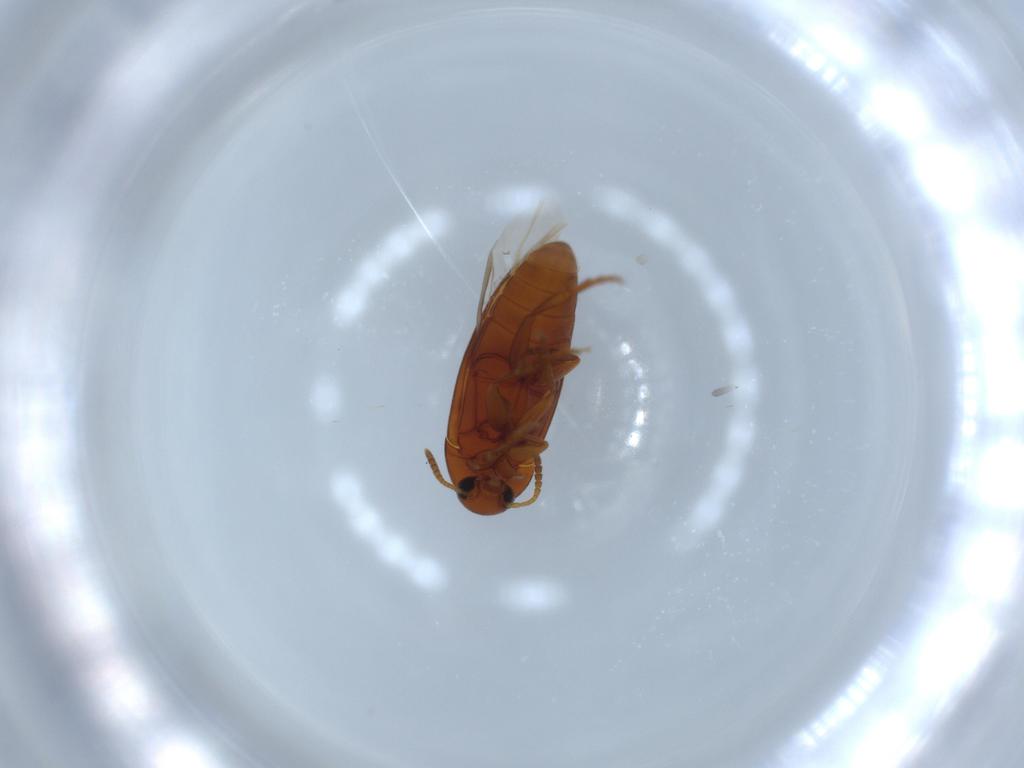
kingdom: Animalia
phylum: Arthropoda
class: Insecta
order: Coleoptera
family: Scraptiidae
